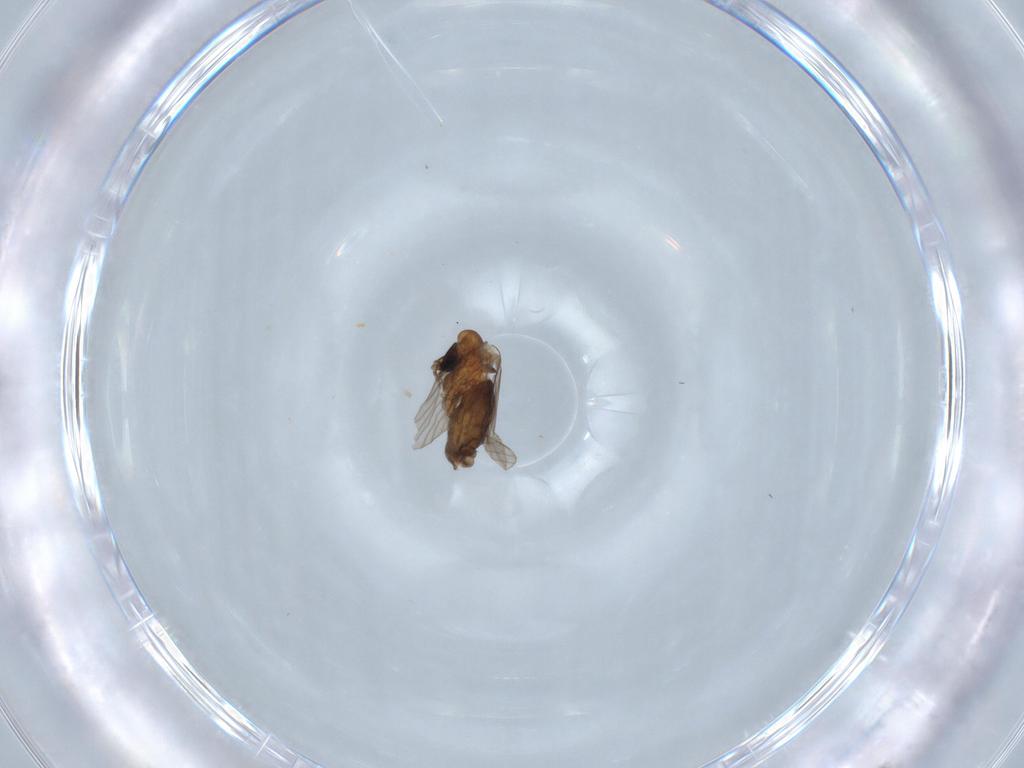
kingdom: Animalia
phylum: Arthropoda
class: Insecta
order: Diptera
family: Psychodidae
